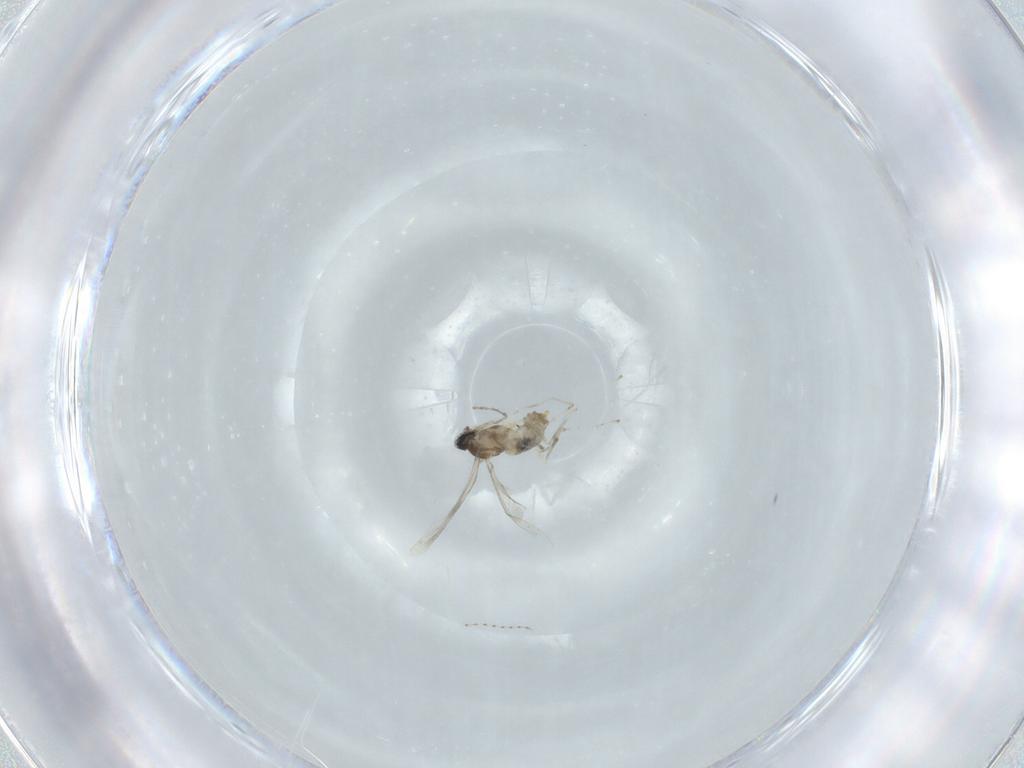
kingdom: Animalia
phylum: Arthropoda
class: Insecta
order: Diptera
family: Cecidomyiidae
